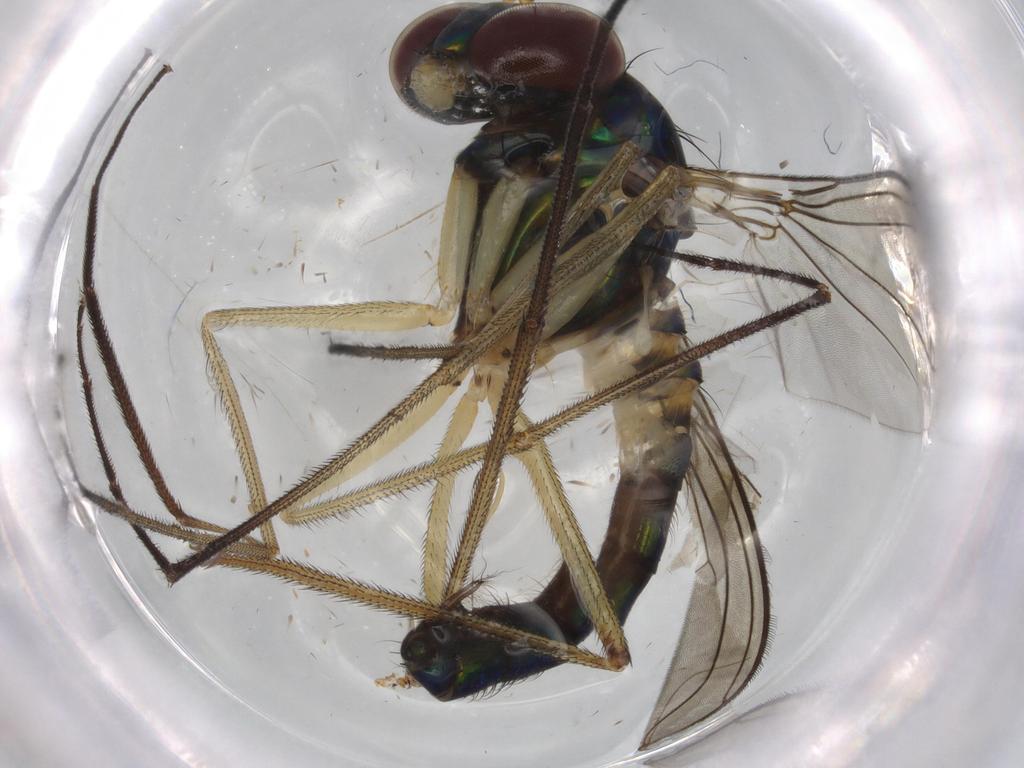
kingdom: Animalia
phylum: Arthropoda
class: Insecta
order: Diptera
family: Dolichopodidae
